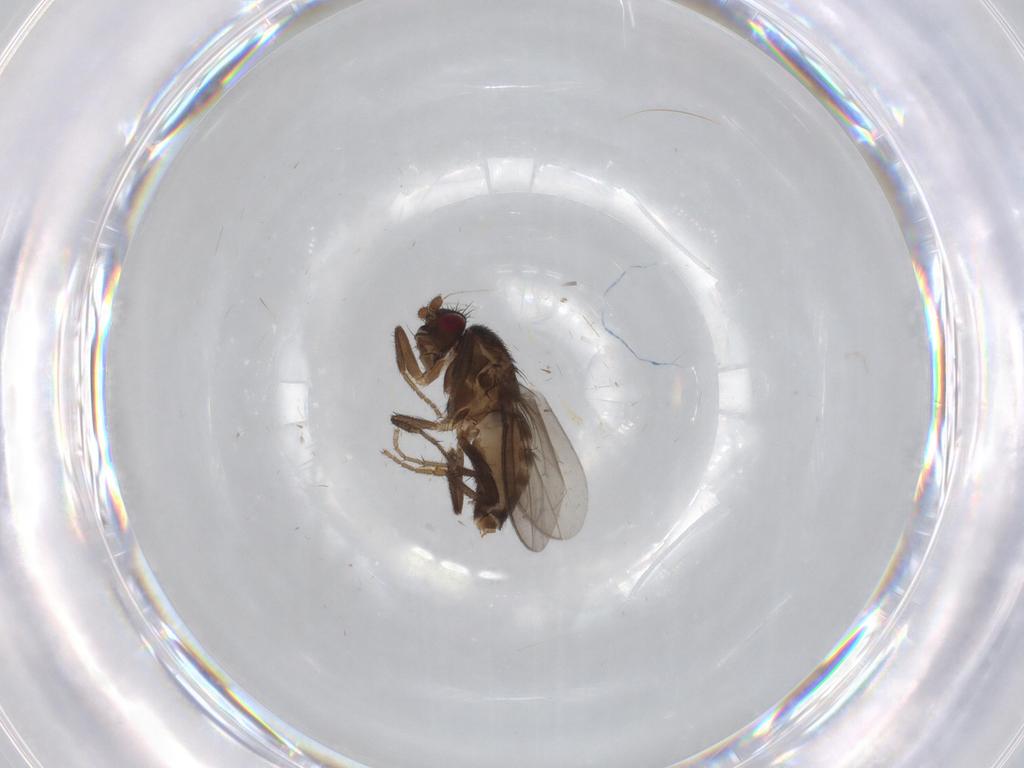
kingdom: Animalia
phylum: Arthropoda
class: Insecta
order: Diptera
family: Sphaeroceridae
